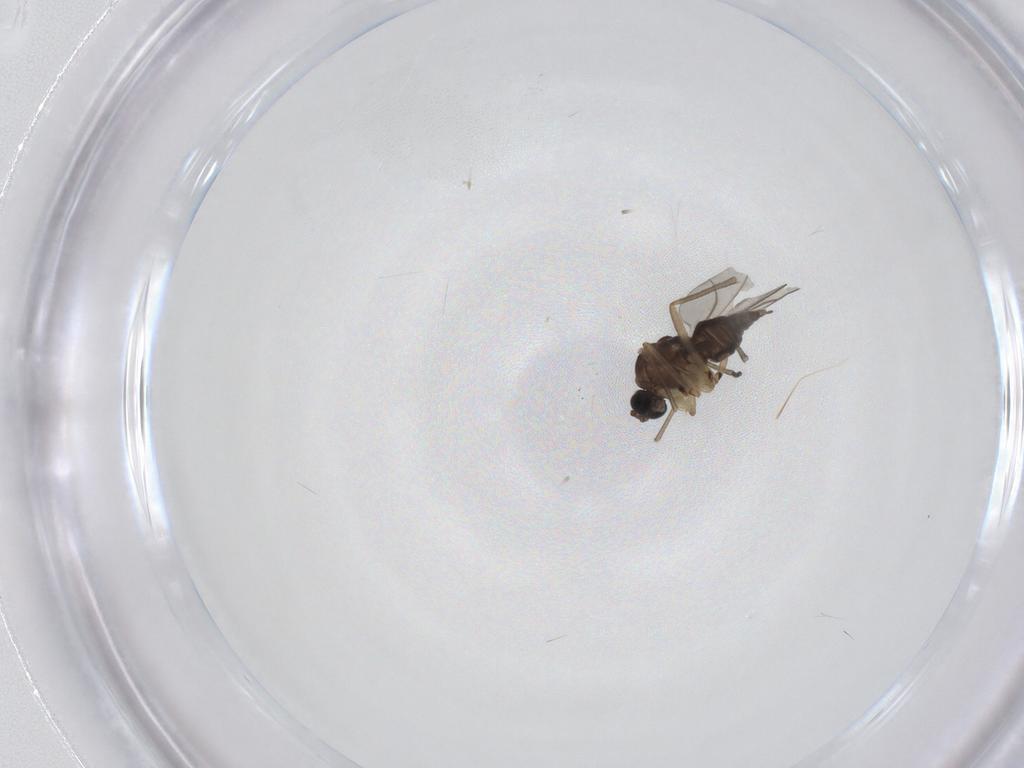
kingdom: Animalia
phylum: Arthropoda
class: Insecta
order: Diptera
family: Sciaridae
